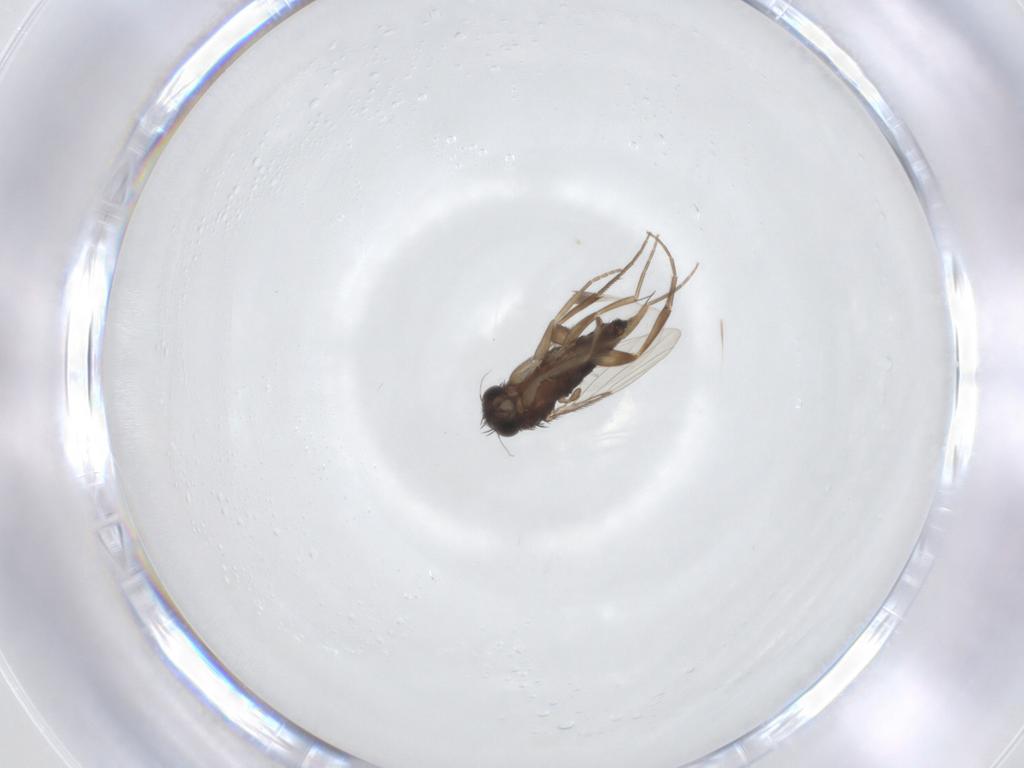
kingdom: Animalia
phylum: Arthropoda
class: Insecta
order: Diptera
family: Phoridae
